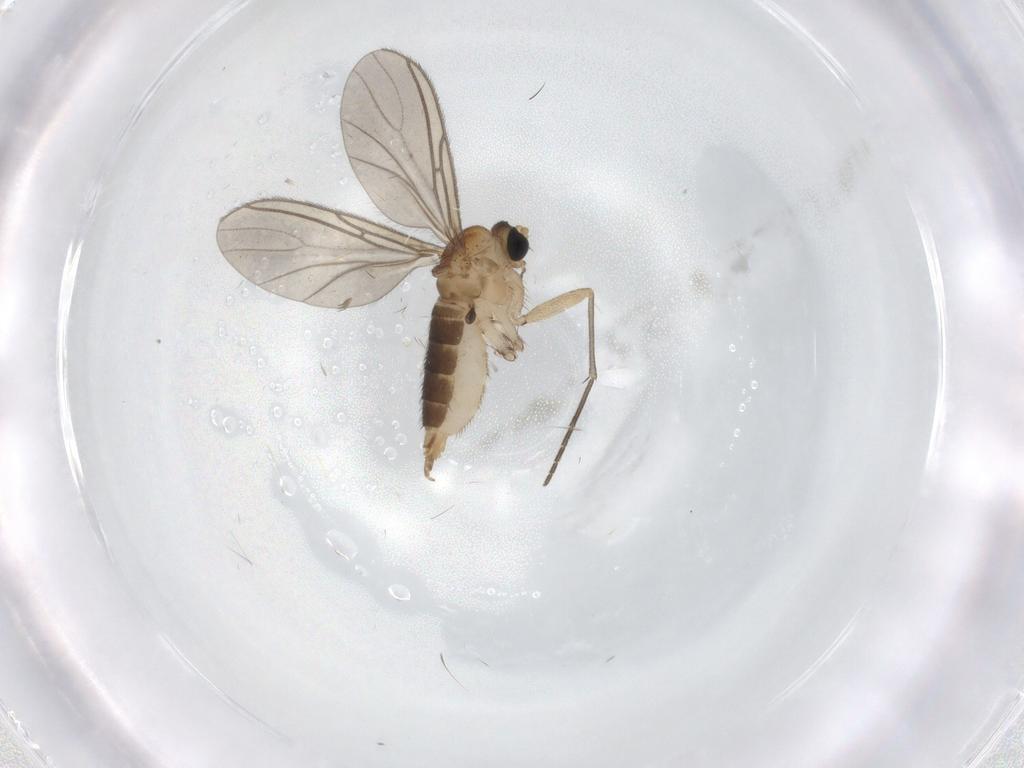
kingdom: Animalia
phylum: Arthropoda
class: Insecta
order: Diptera
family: Sciaridae
